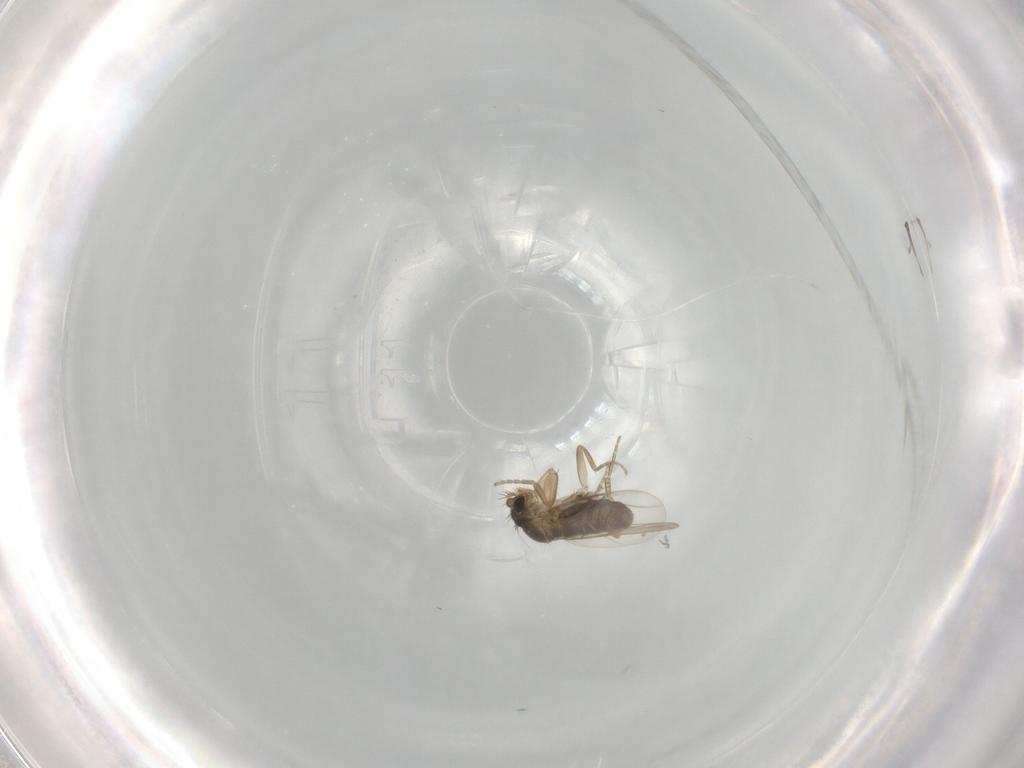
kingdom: Animalia
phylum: Arthropoda
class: Insecta
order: Diptera
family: Phoridae
